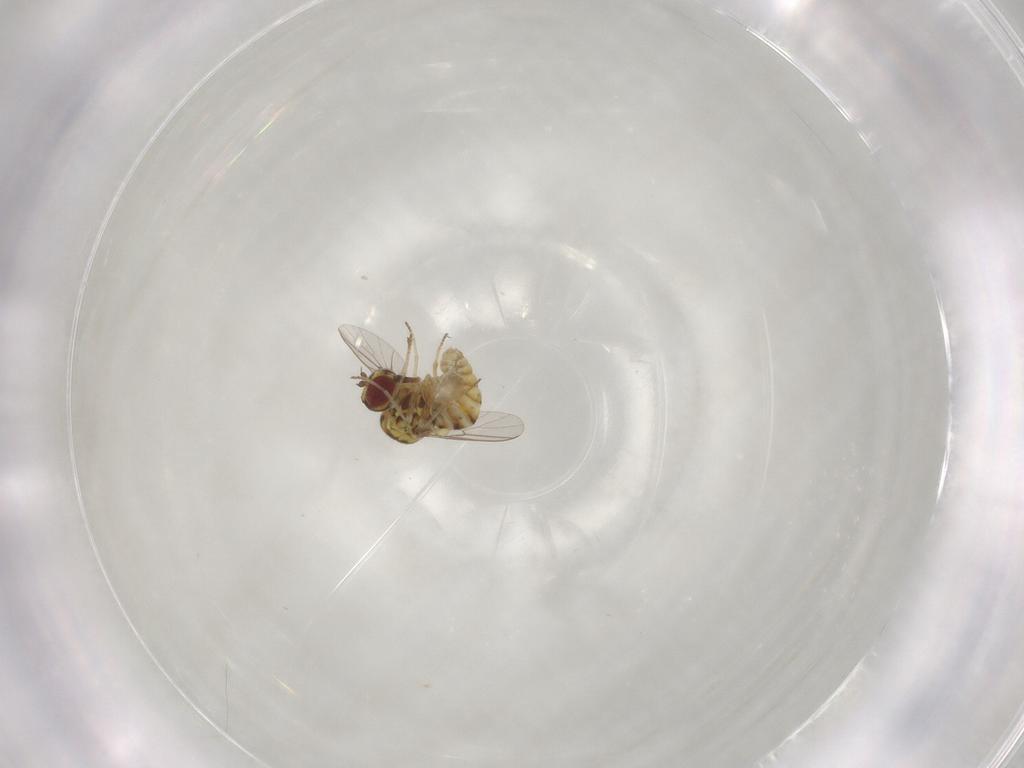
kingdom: Animalia
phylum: Arthropoda
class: Insecta
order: Diptera
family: Mythicomyiidae
